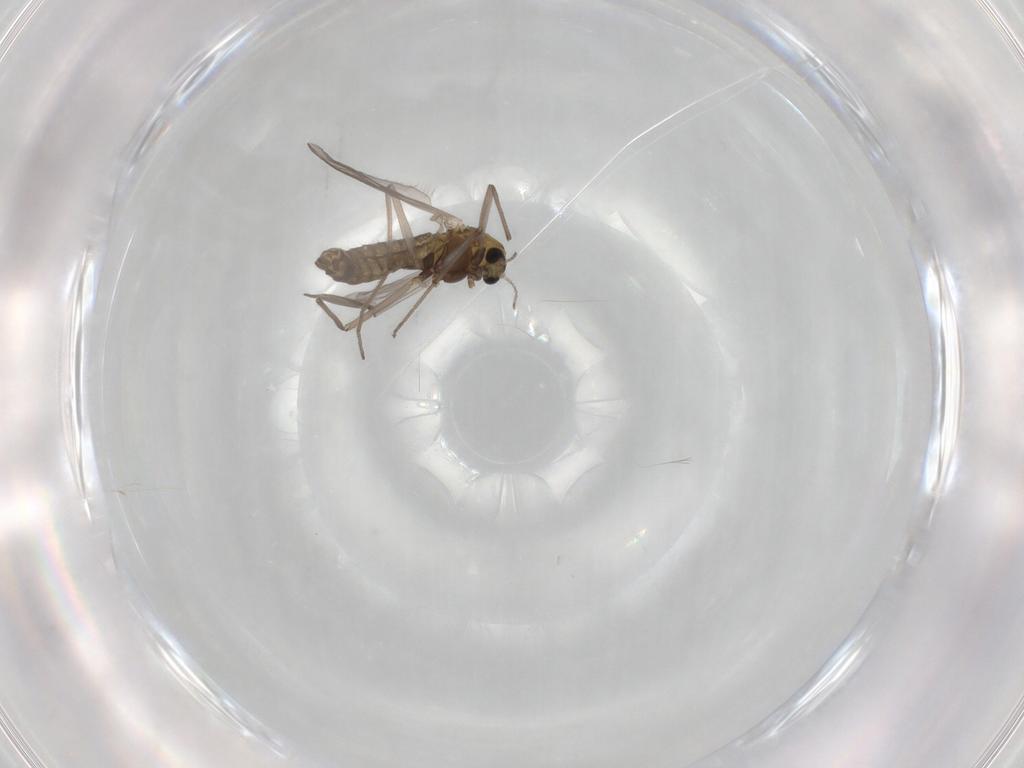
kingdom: Animalia
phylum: Arthropoda
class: Insecta
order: Diptera
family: Chironomidae
